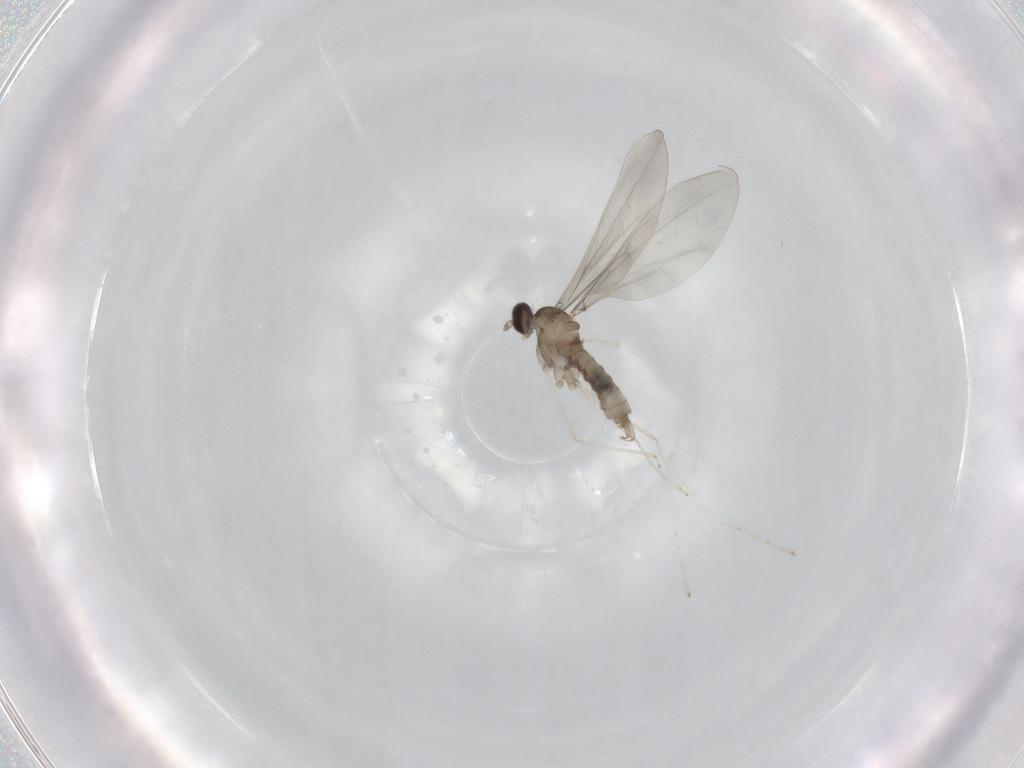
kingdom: Animalia
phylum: Arthropoda
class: Insecta
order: Diptera
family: Cecidomyiidae
